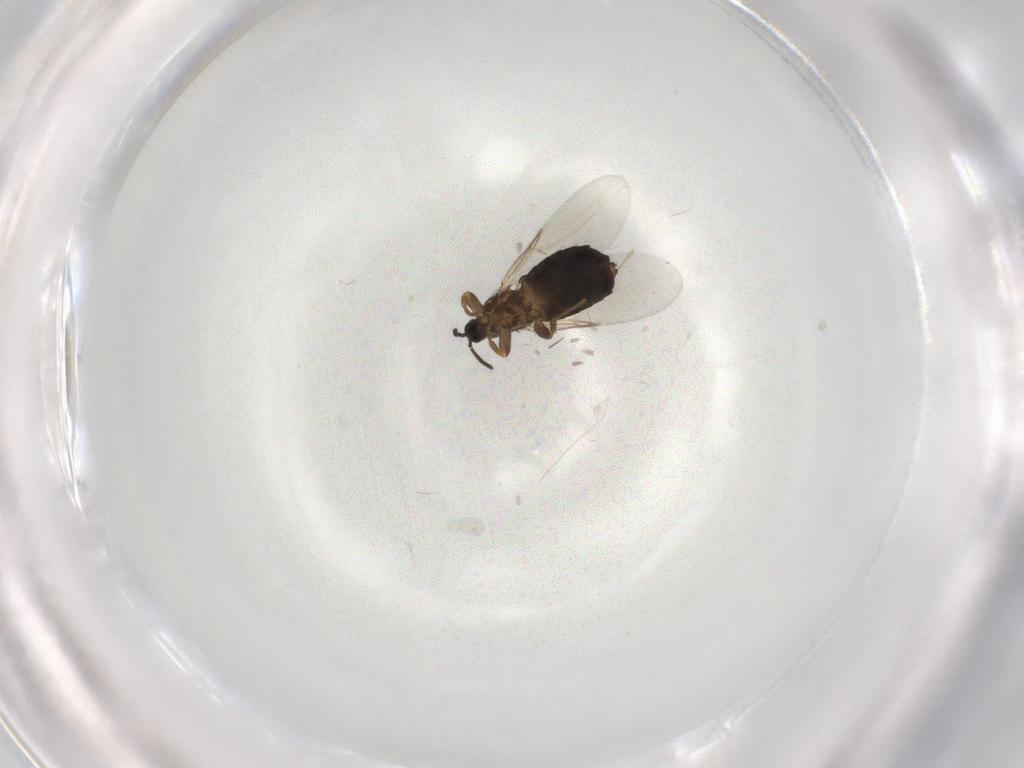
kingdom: Animalia
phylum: Arthropoda
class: Insecta
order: Diptera
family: Scatopsidae
